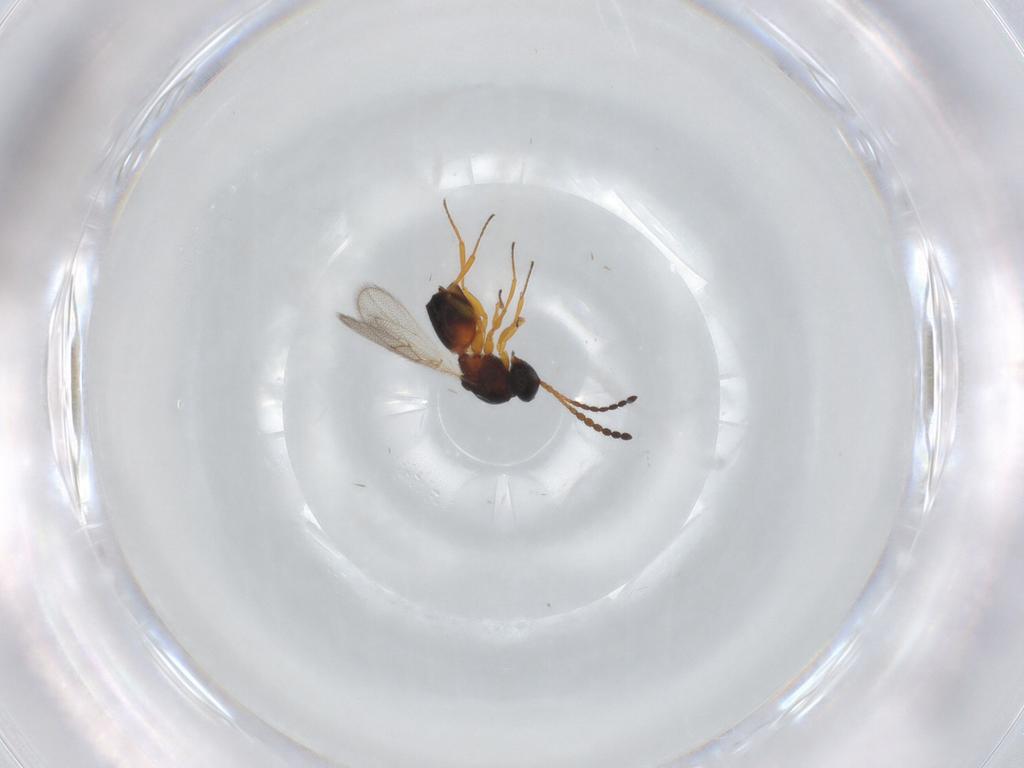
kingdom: Animalia
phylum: Arthropoda
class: Insecta
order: Hymenoptera
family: Figitidae
